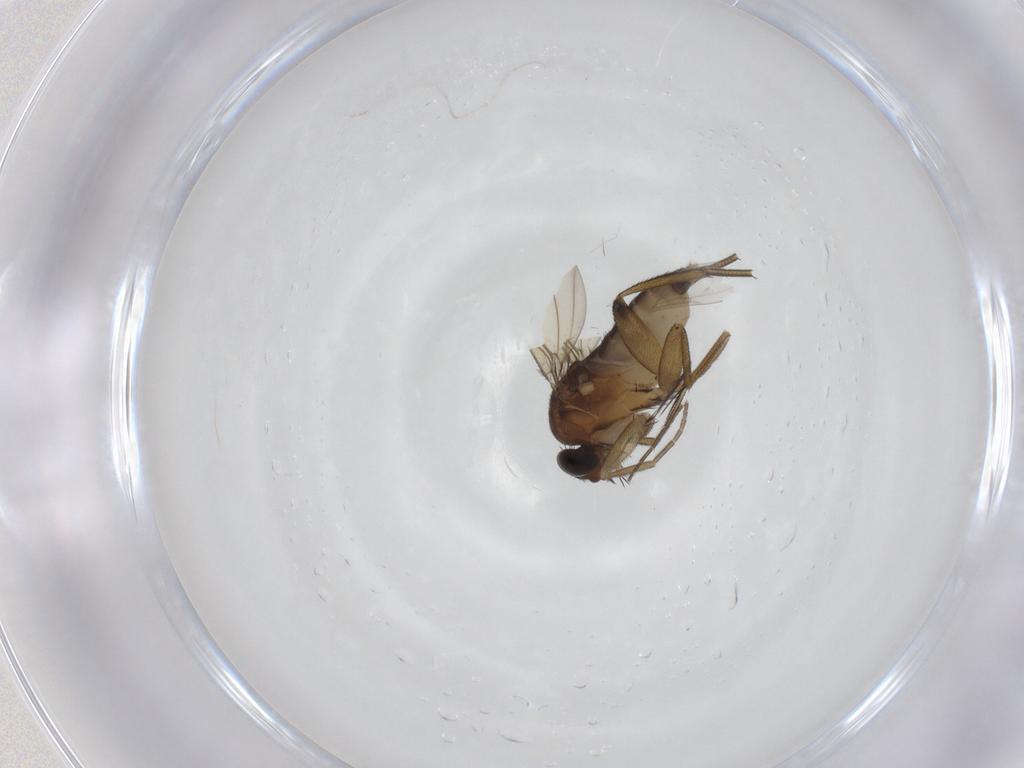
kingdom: Animalia
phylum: Arthropoda
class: Insecta
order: Diptera
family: Phoridae
